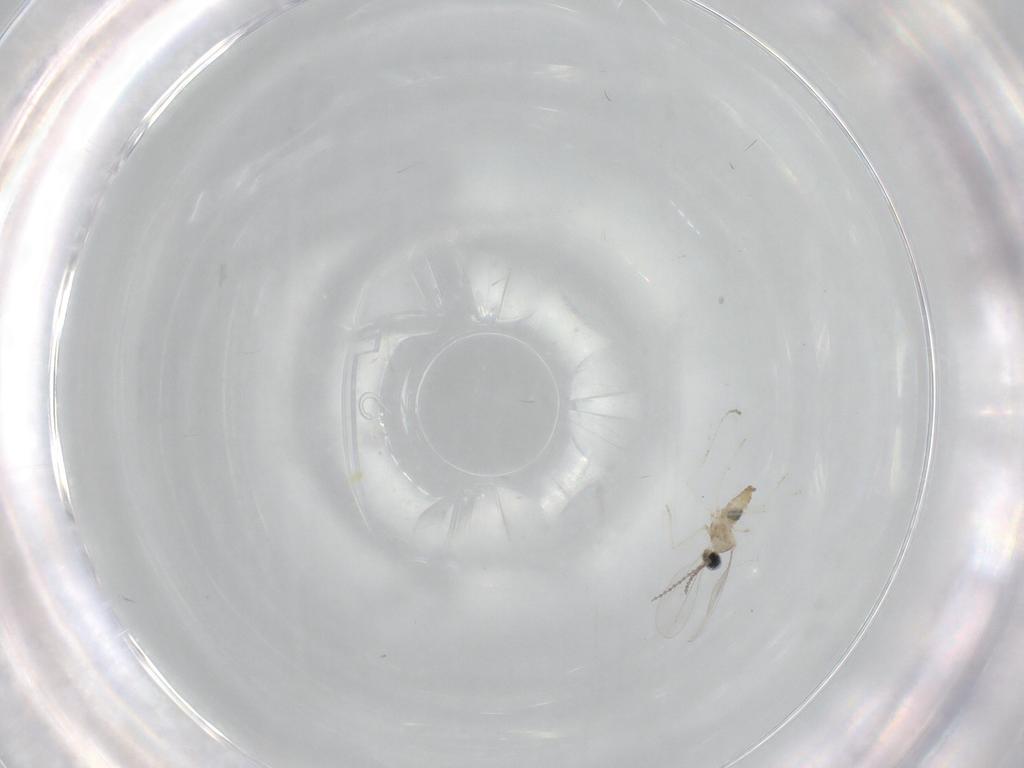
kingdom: Animalia
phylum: Arthropoda
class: Insecta
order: Diptera
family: Cecidomyiidae
